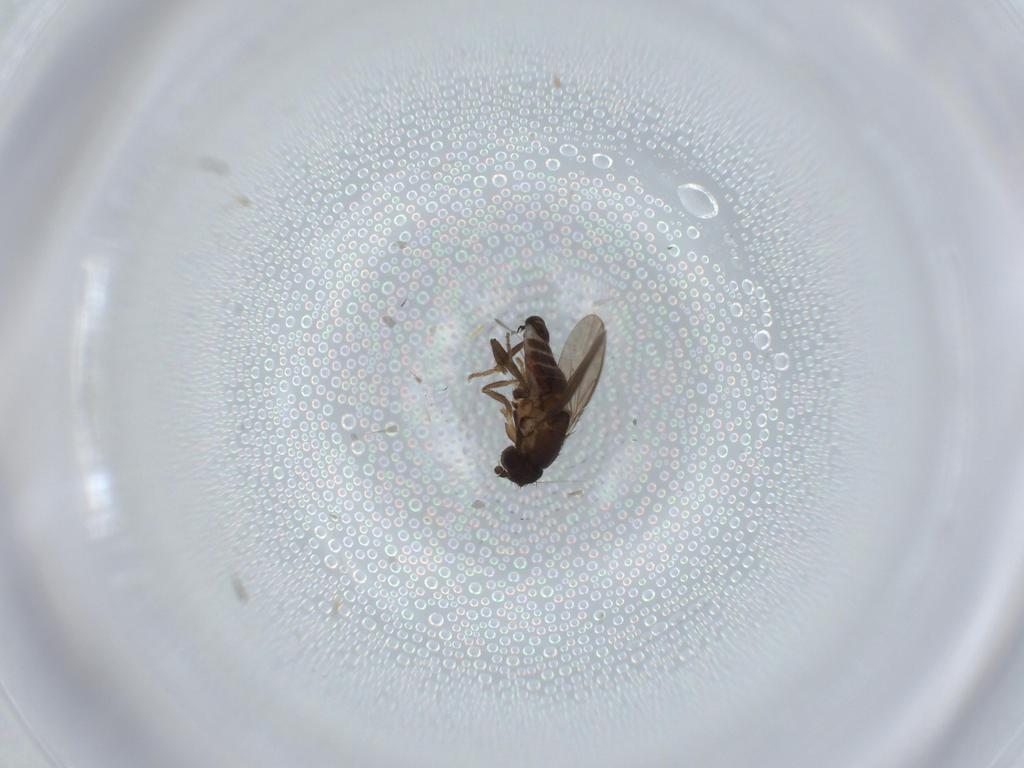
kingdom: Animalia
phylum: Arthropoda
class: Insecta
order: Diptera
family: Sphaeroceridae
